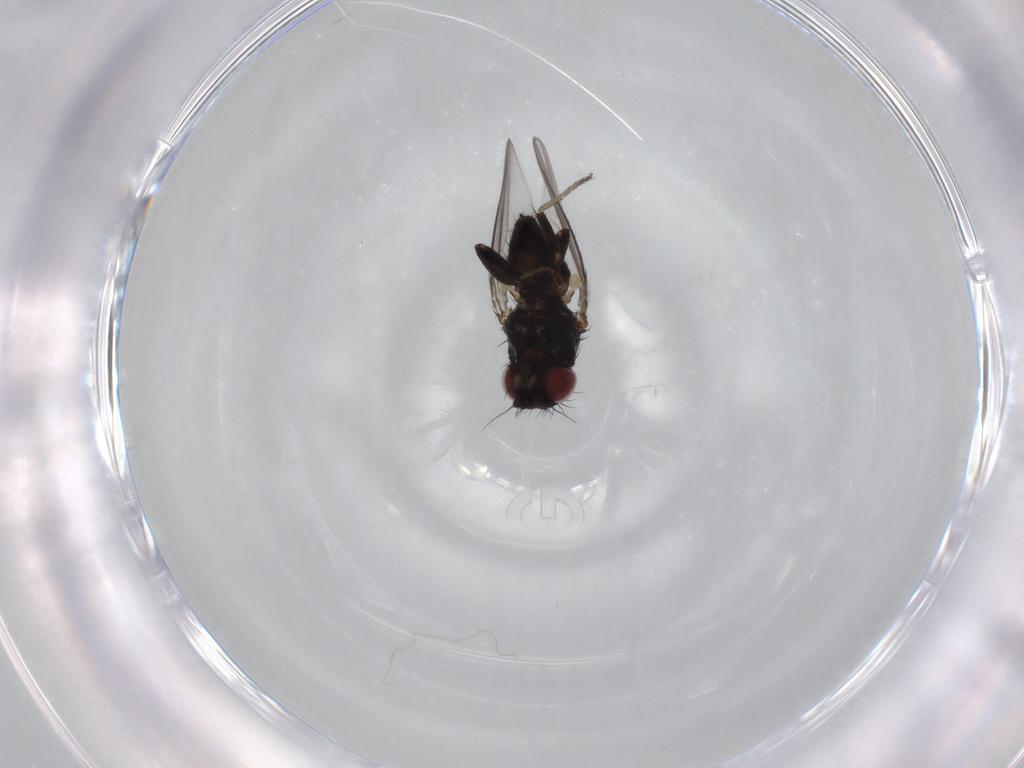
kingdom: Animalia
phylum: Arthropoda
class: Insecta
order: Diptera
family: Milichiidae
